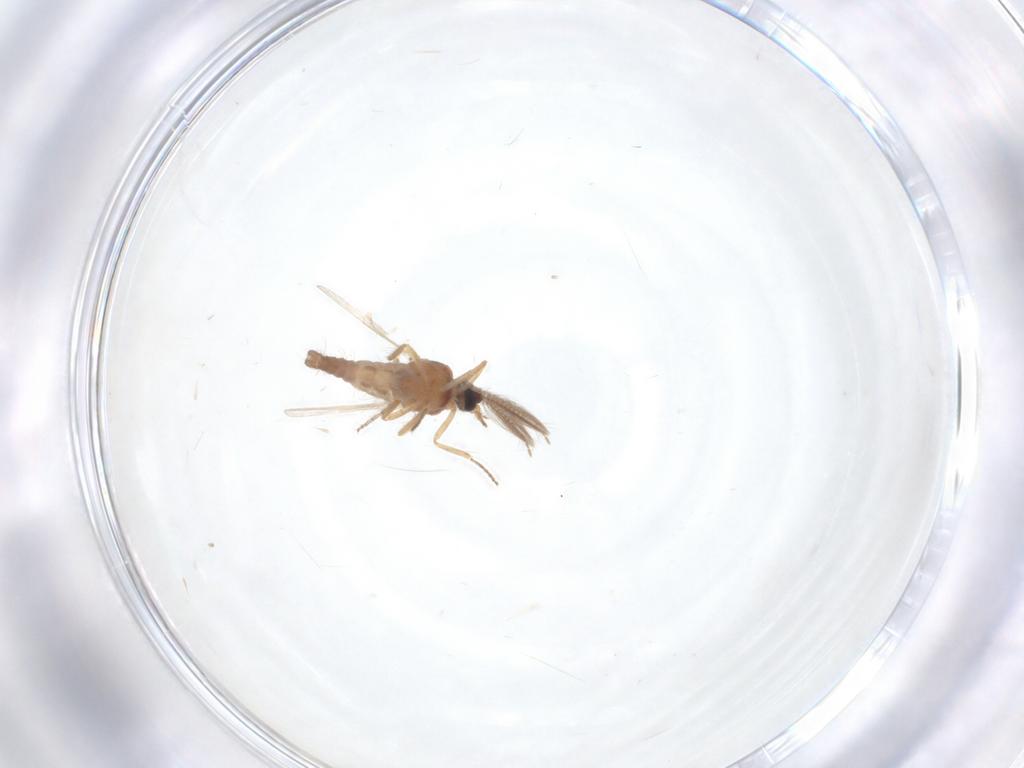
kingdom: Animalia
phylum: Arthropoda
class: Insecta
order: Diptera
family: Ceratopogonidae
